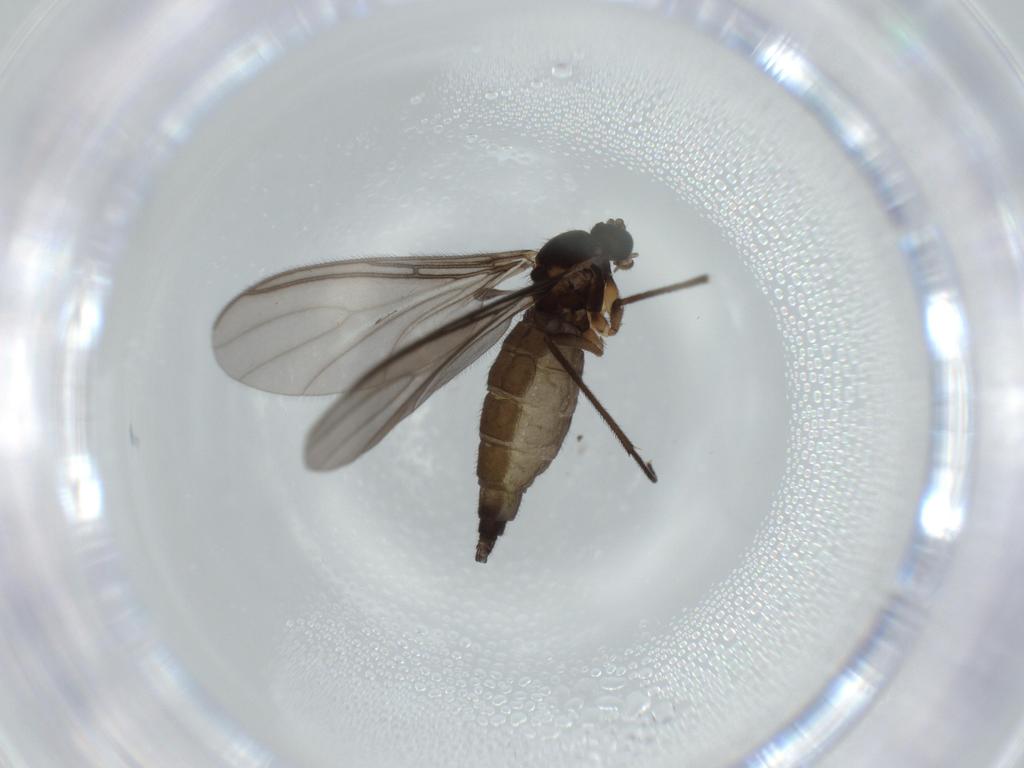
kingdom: Animalia
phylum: Arthropoda
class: Insecta
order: Diptera
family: Sciaridae
